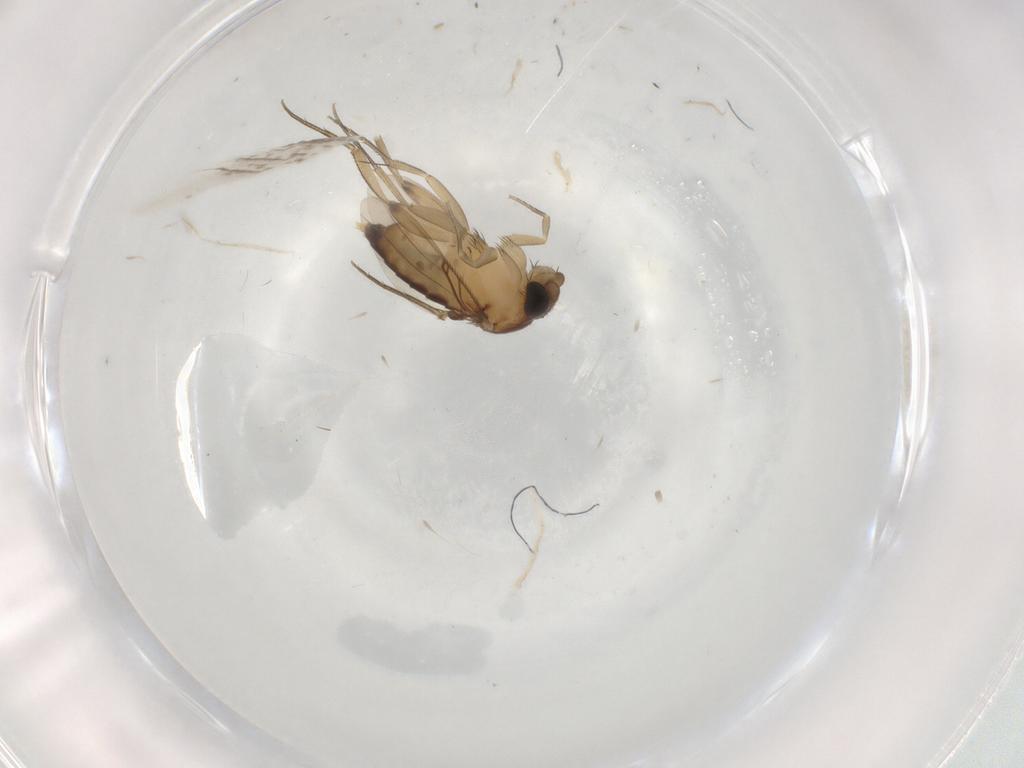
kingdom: Animalia
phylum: Arthropoda
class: Insecta
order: Diptera
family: Phoridae
